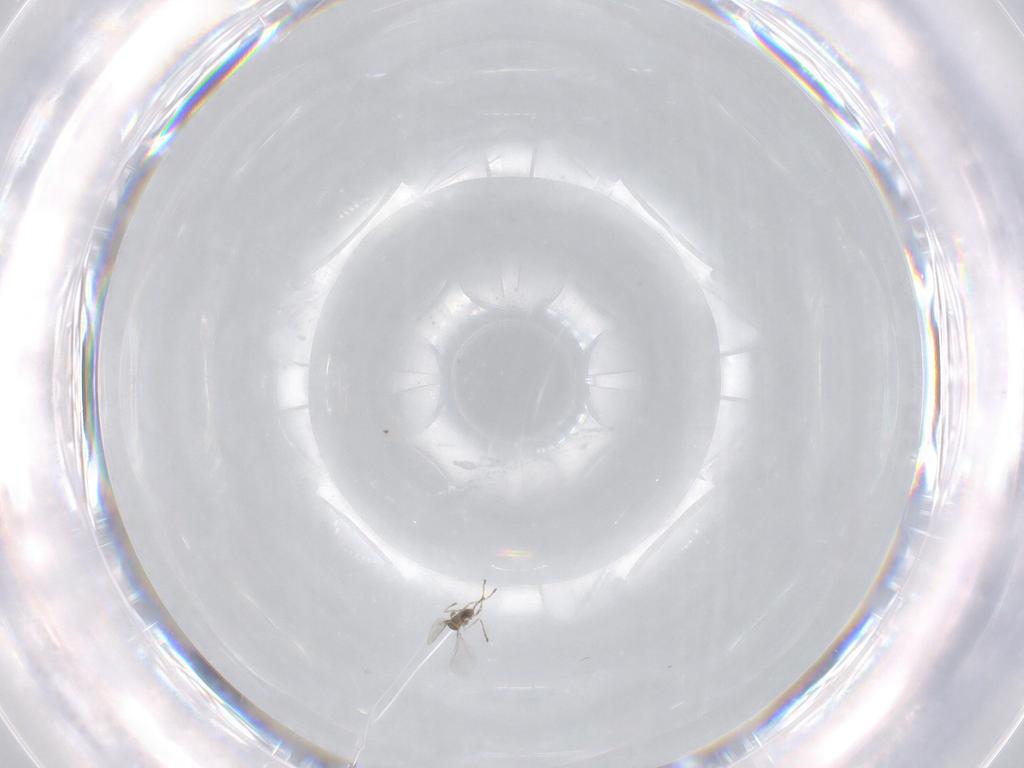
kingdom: Animalia
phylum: Arthropoda
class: Insecta
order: Diptera
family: Cecidomyiidae
